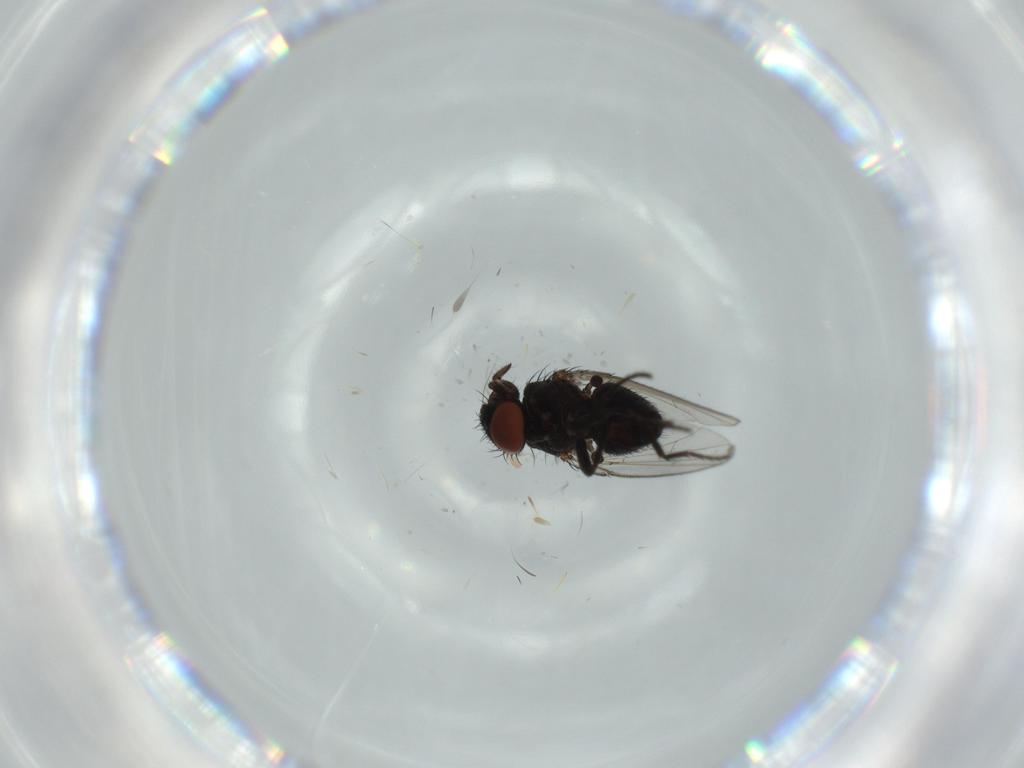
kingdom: Animalia
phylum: Arthropoda
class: Insecta
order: Diptera
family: Milichiidae
